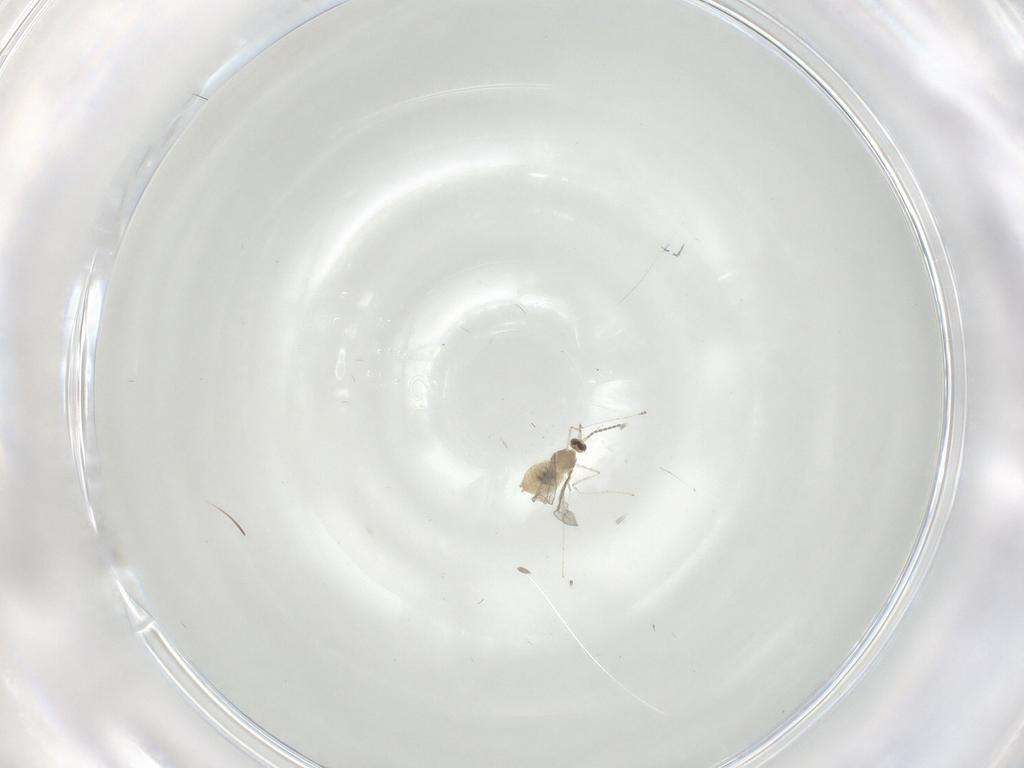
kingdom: Animalia
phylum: Arthropoda
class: Insecta
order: Diptera
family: Cecidomyiidae
